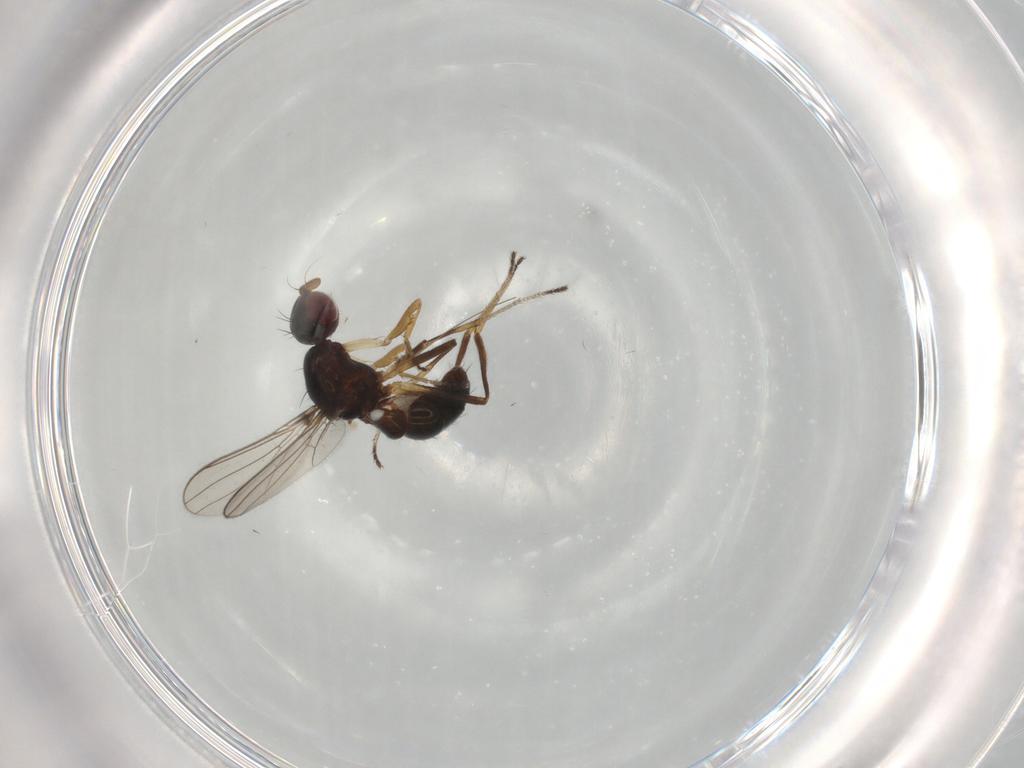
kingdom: Animalia
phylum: Arthropoda
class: Insecta
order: Diptera
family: Sepsidae
